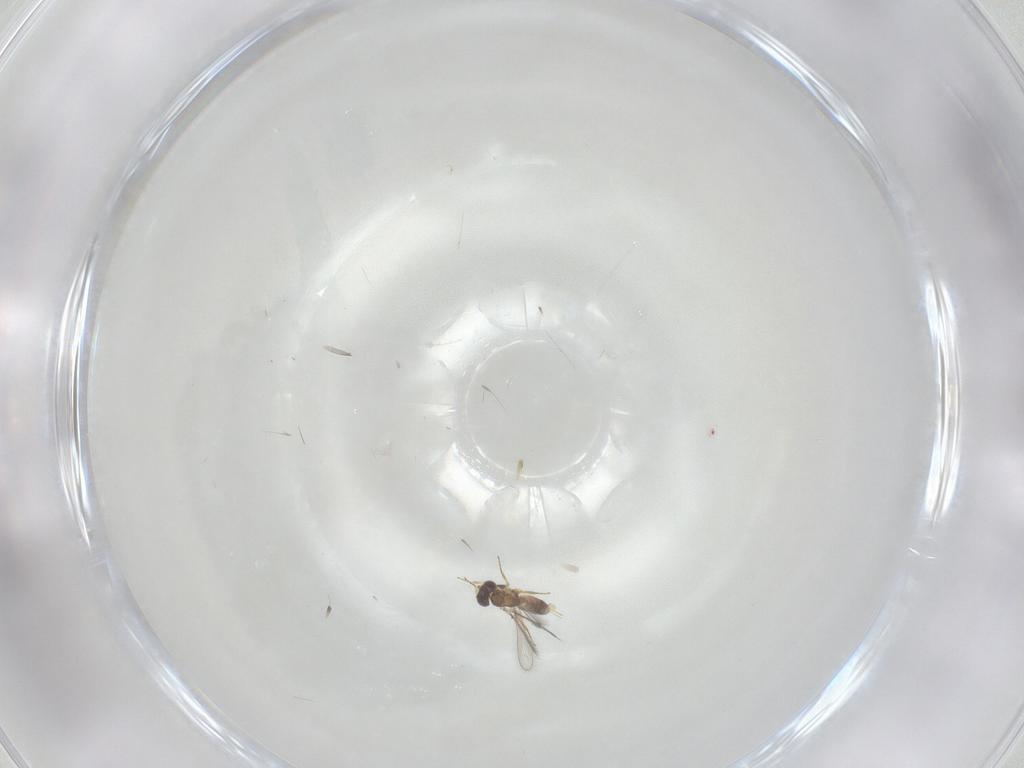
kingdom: Animalia
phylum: Arthropoda
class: Insecta
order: Hymenoptera
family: Mymaridae
